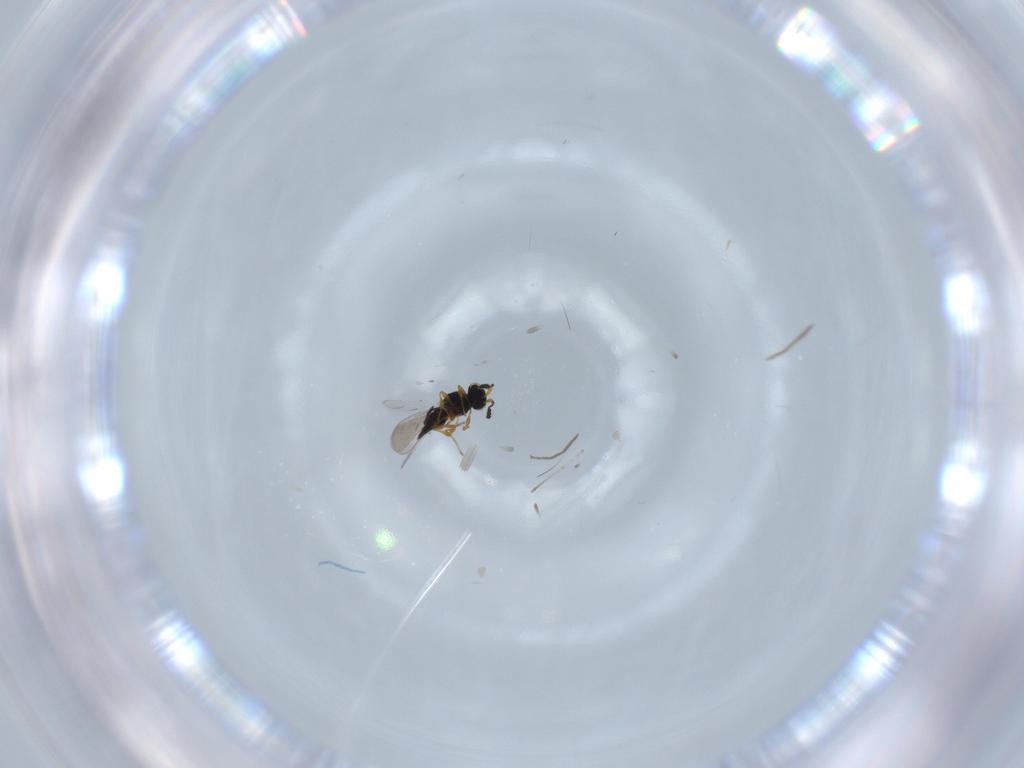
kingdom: Animalia
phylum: Arthropoda
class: Insecta
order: Hymenoptera
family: Platygastridae
